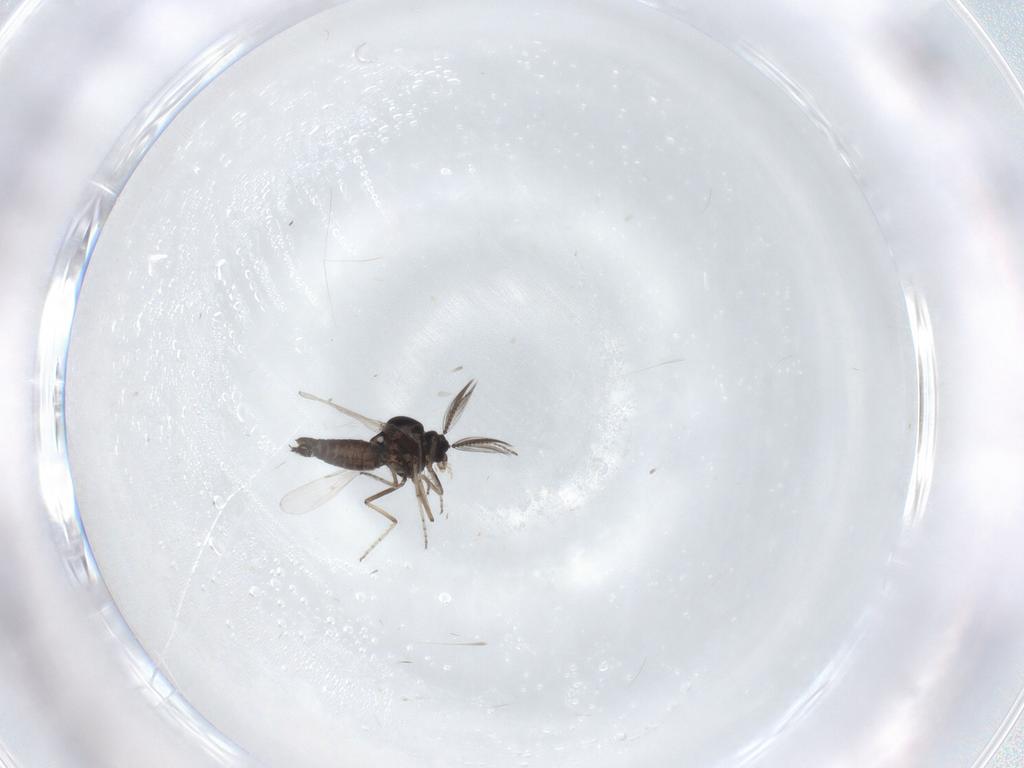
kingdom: Animalia
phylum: Arthropoda
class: Insecta
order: Diptera
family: Ceratopogonidae
